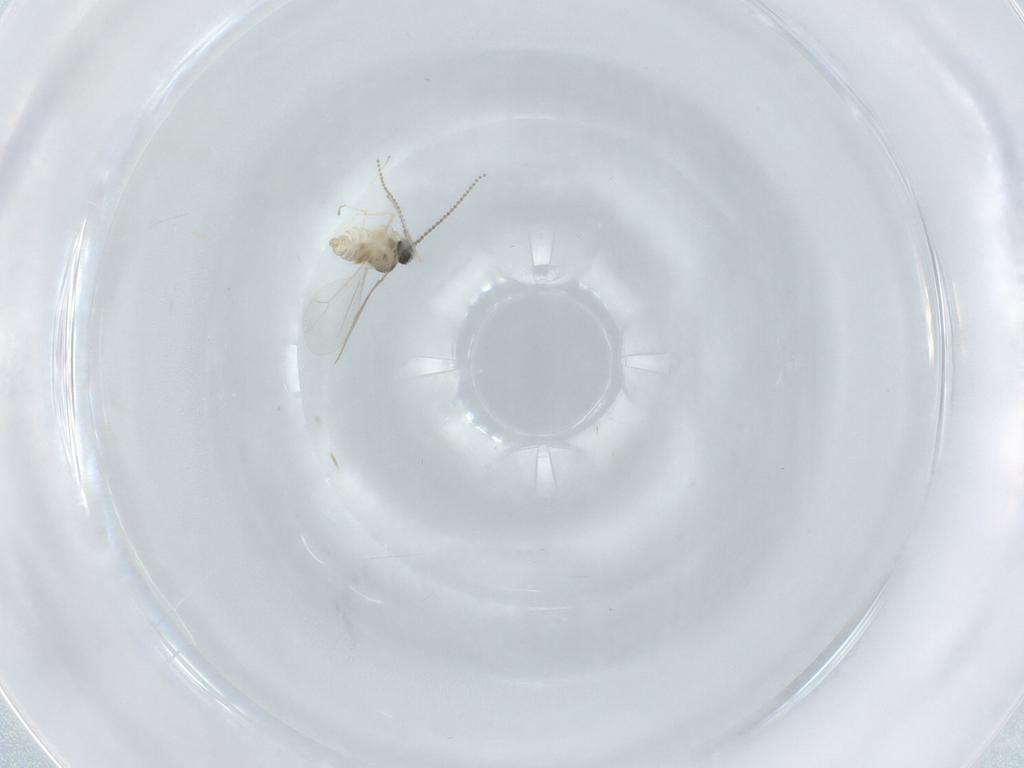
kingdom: Animalia
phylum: Arthropoda
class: Insecta
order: Diptera
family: Cecidomyiidae
